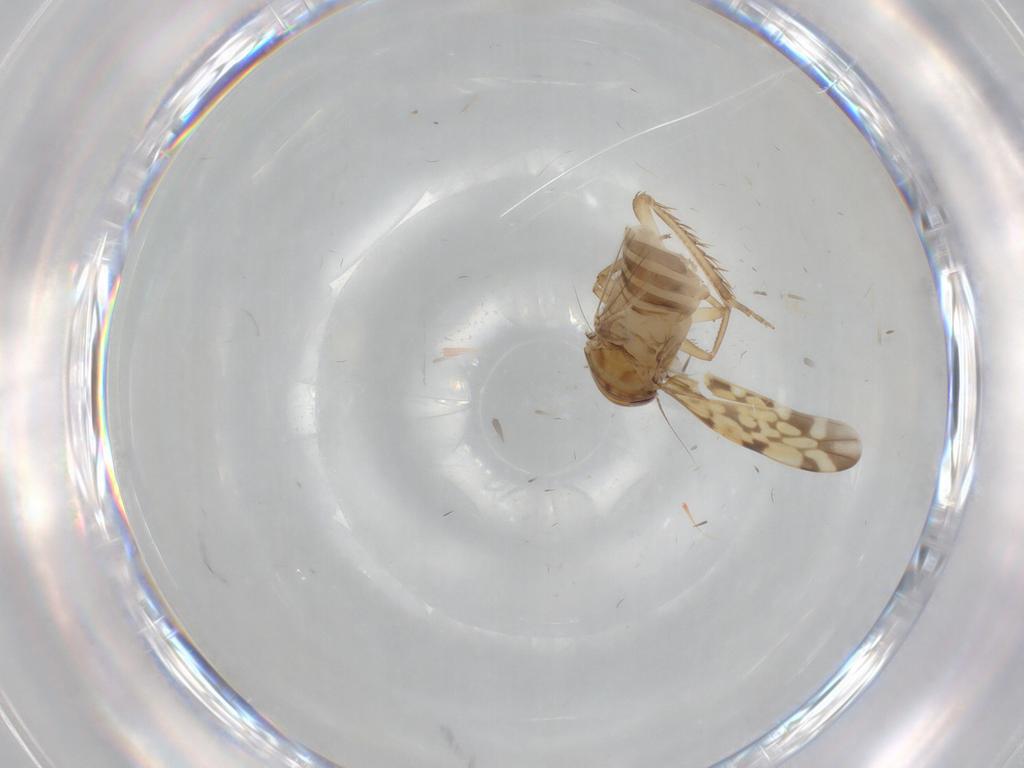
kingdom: Animalia
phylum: Arthropoda
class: Insecta
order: Hemiptera
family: Cicadellidae
